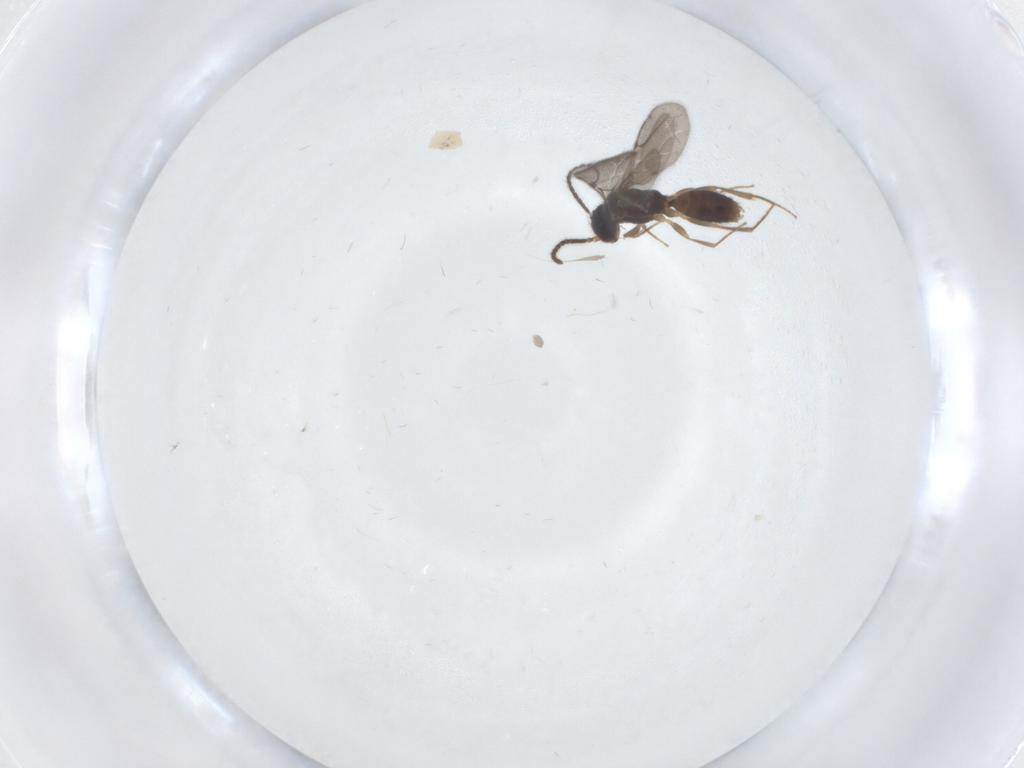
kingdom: Animalia
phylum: Arthropoda
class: Insecta
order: Hymenoptera
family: Bethylidae
